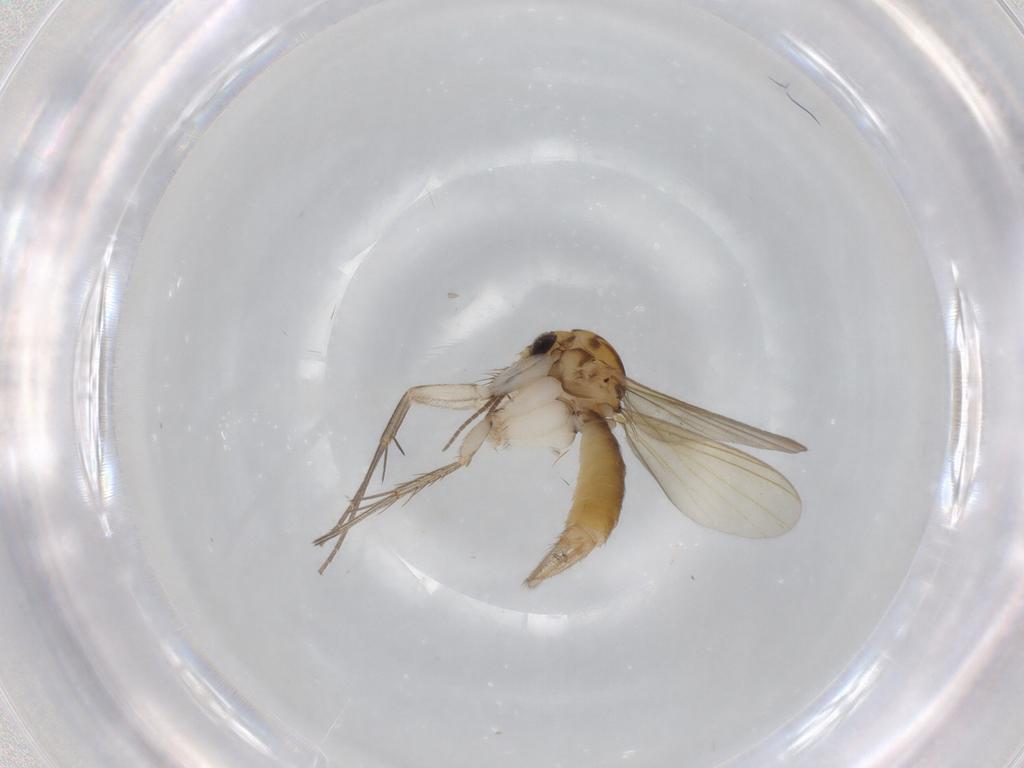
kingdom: Animalia
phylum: Arthropoda
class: Insecta
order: Diptera
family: Mycetophilidae
